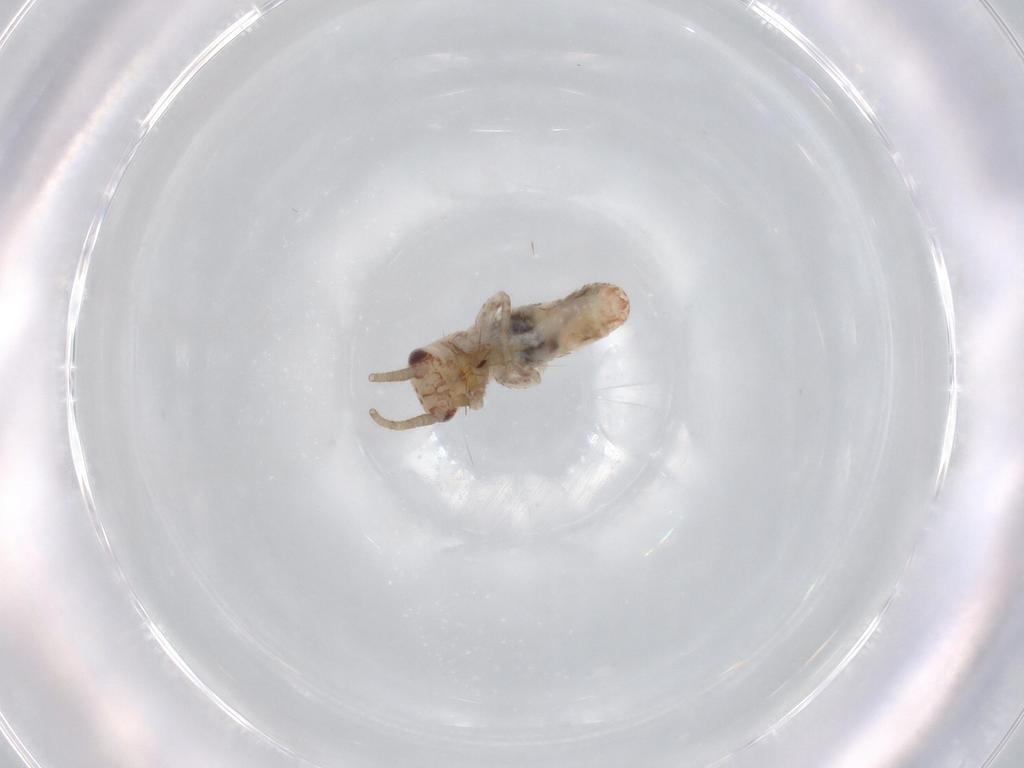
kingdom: Animalia
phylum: Arthropoda
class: Insecta
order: Orthoptera
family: Mogoplistidae
